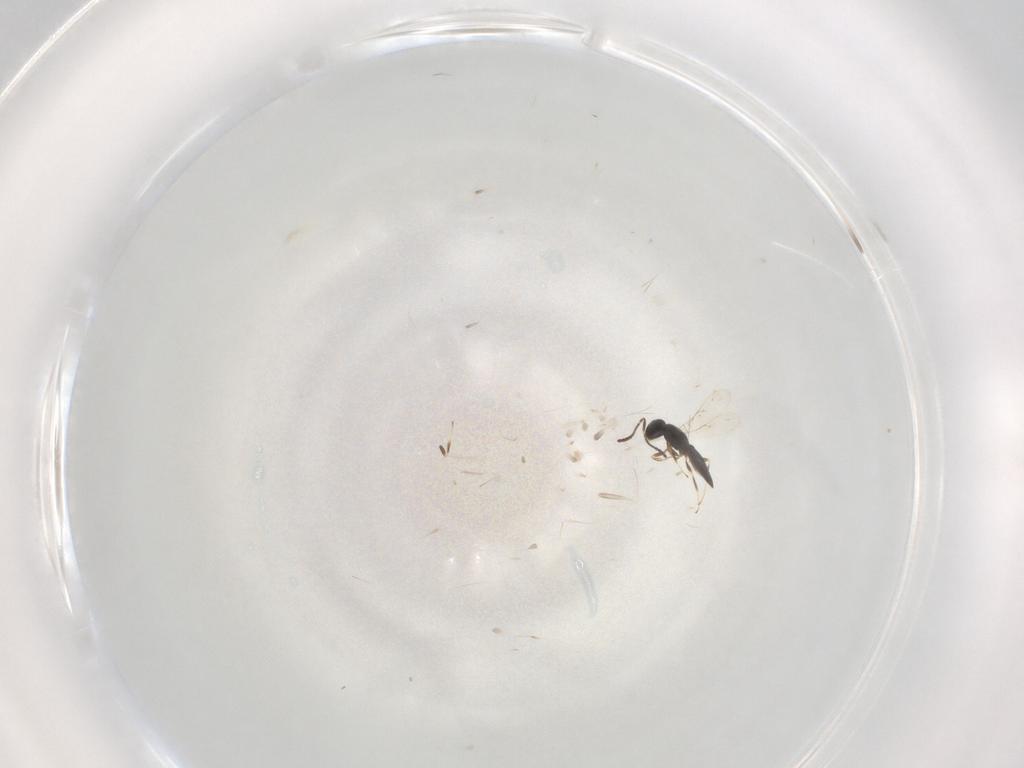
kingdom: Animalia
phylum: Arthropoda
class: Insecta
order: Hymenoptera
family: Scelionidae
